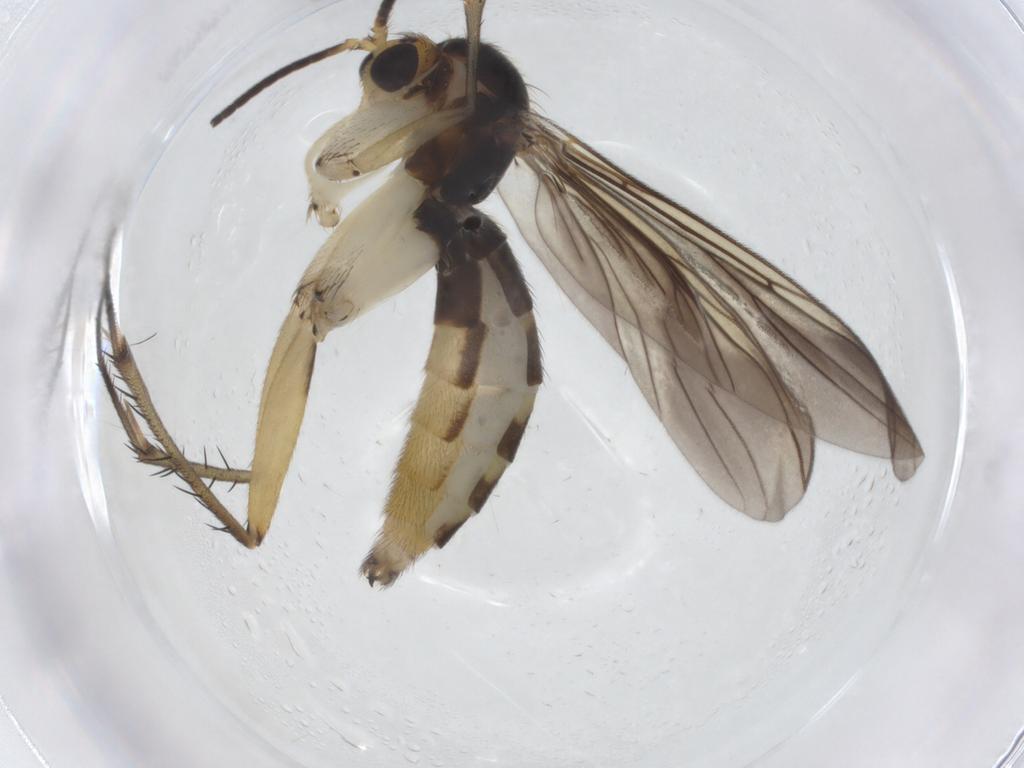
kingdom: Animalia
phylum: Arthropoda
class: Insecta
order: Diptera
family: Mycetophilidae
